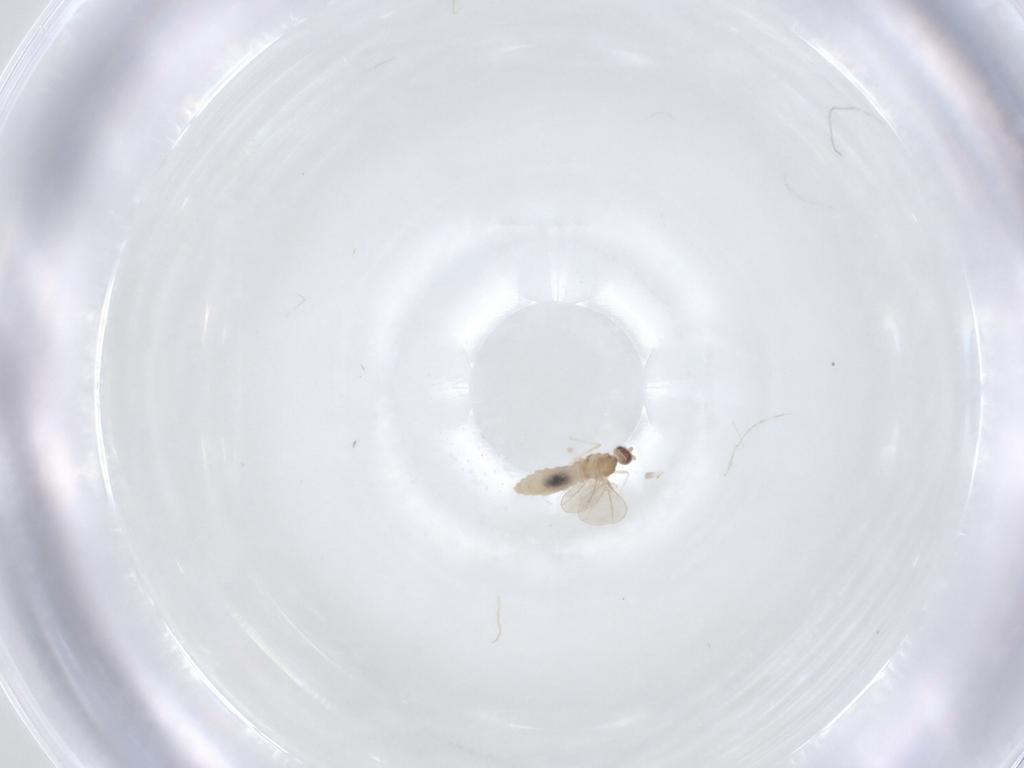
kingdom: Animalia
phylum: Arthropoda
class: Insecta
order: Diptera
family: Cecidomyiidae
